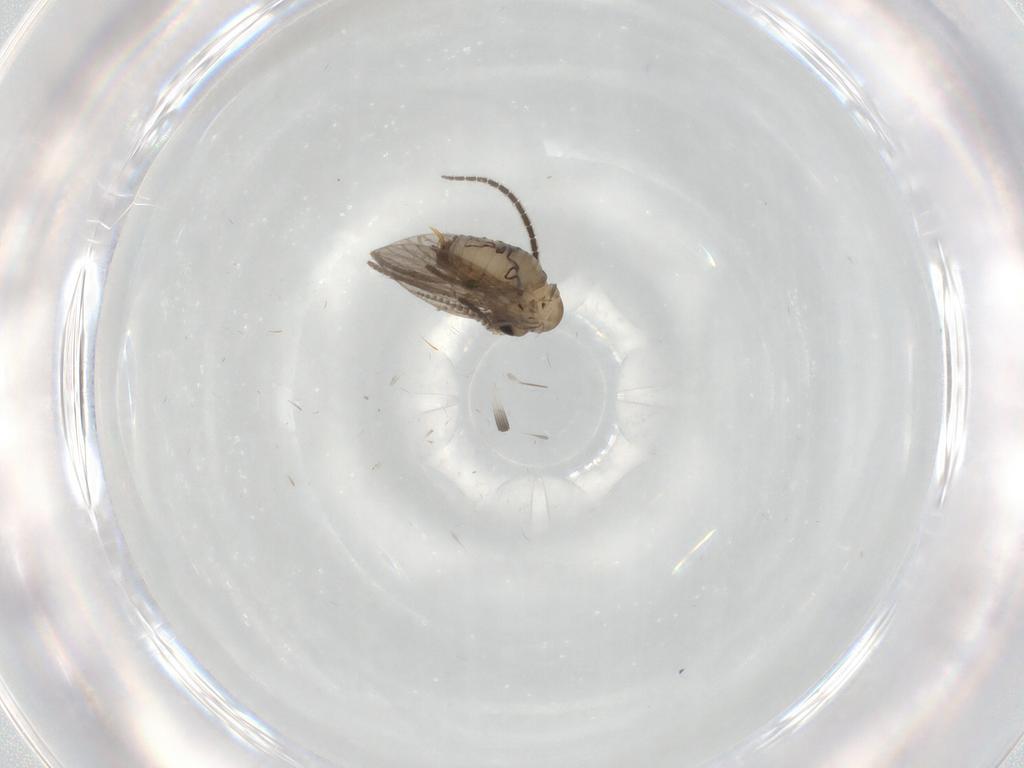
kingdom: Animalia
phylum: Arthropoda
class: Insecta
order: Diptera
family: Sciaridae
